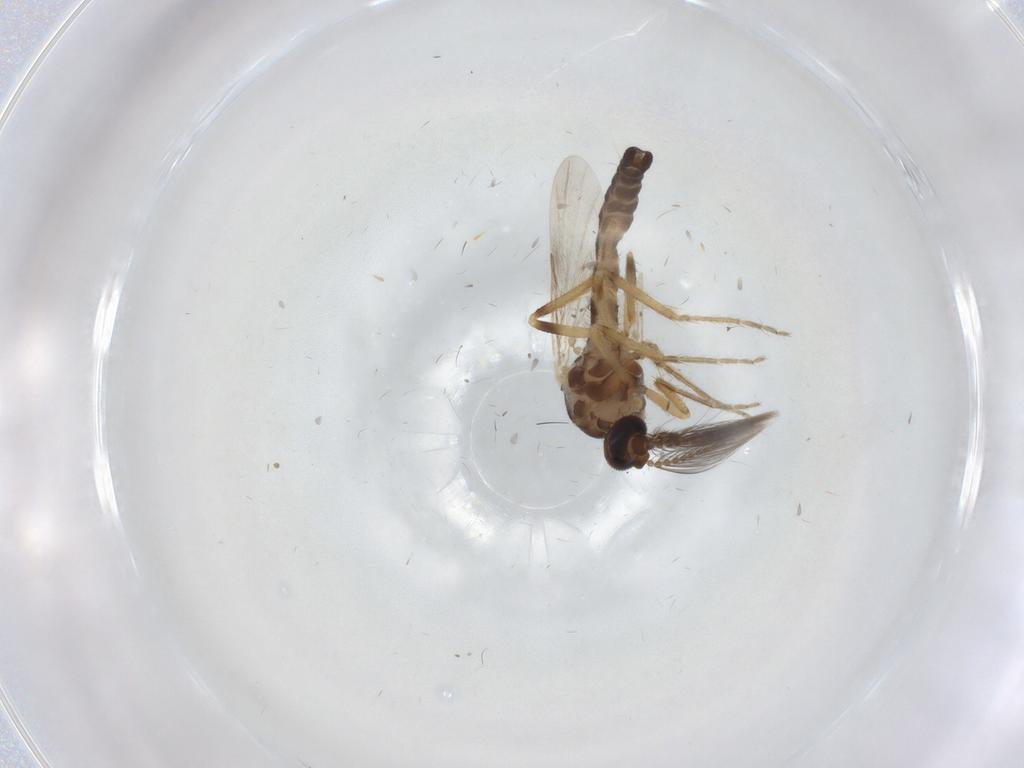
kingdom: Animalia
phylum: Arthropoda
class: Insecta
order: Diptera
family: Ceratopogonidae
